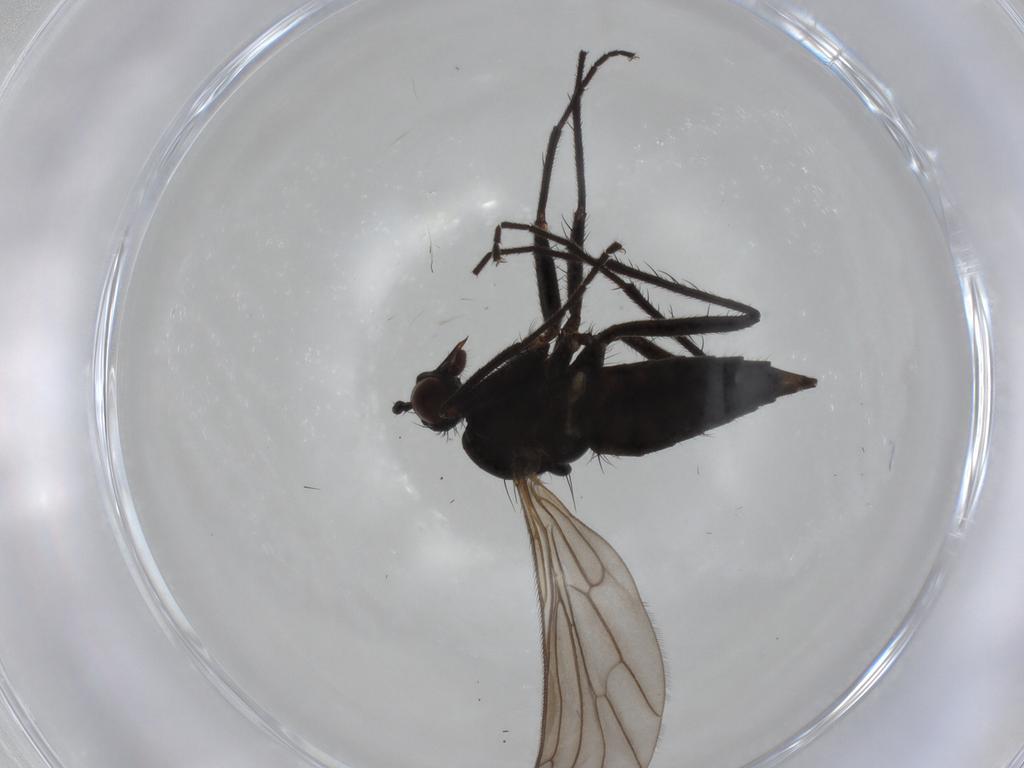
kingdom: Animalia
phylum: Arthropoda
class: Insecta
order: Diptera
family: Empididae
